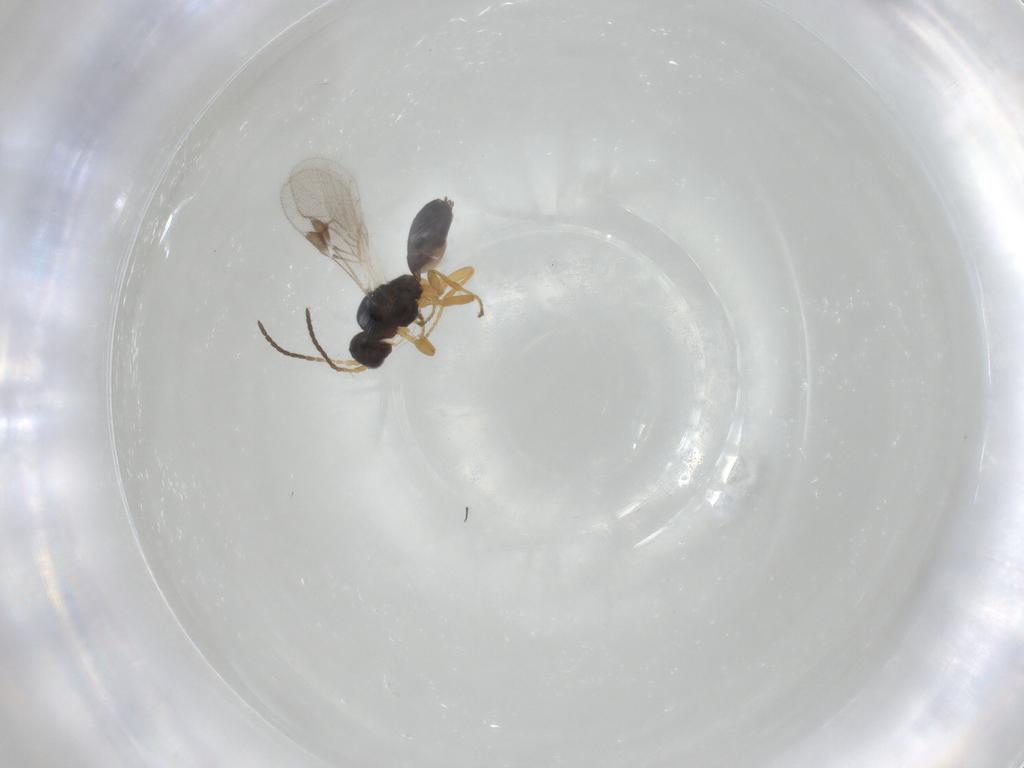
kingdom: Animalia
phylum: Arthropoda
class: Insecta
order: Hymenoptera
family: Braconidae
